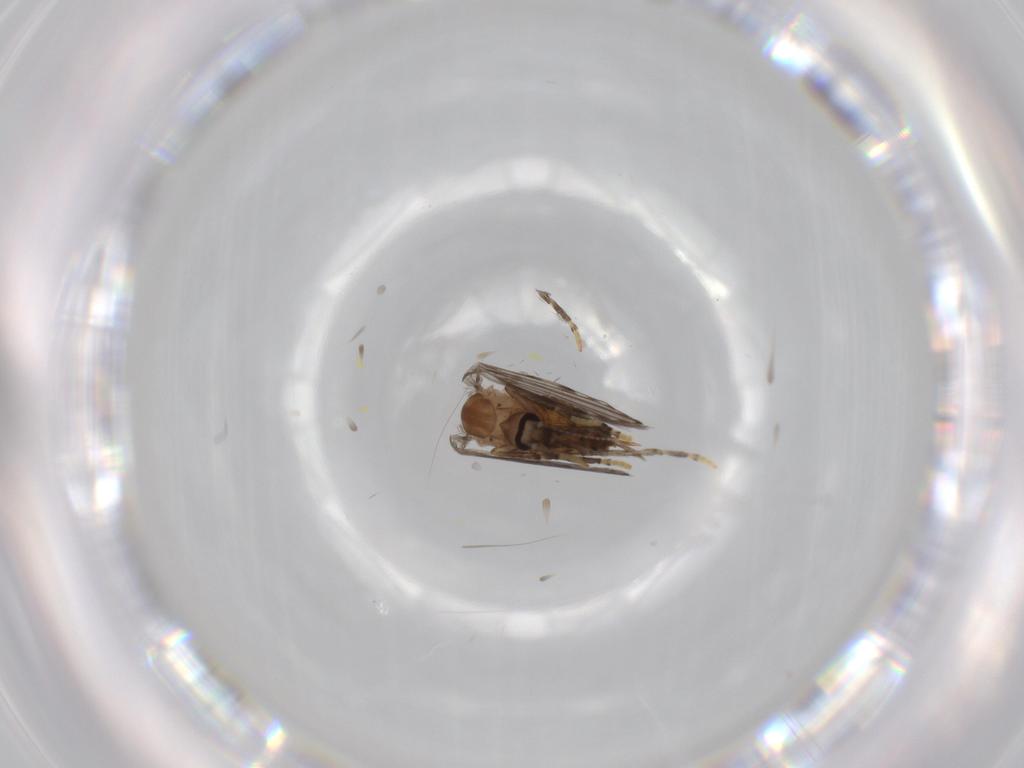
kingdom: Animalia
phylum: Arthropoda
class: Insecta
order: Diptera
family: Psychodidae
